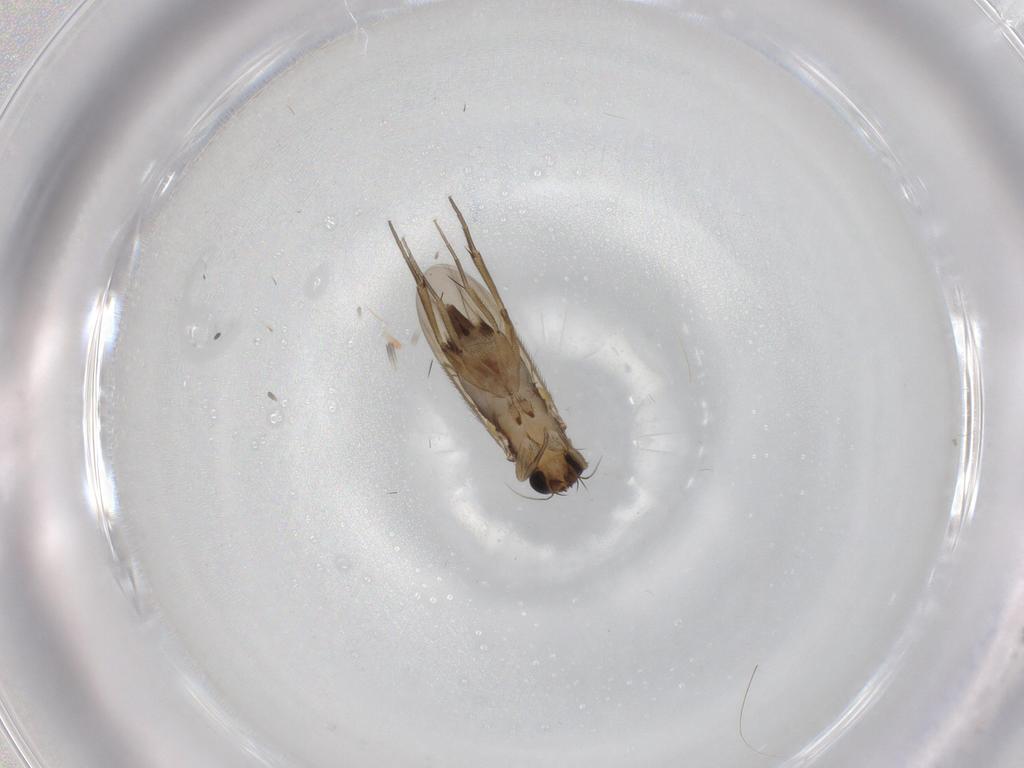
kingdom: Animalia
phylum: Arthropoda
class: Insecta
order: Diptera
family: Phoridae
